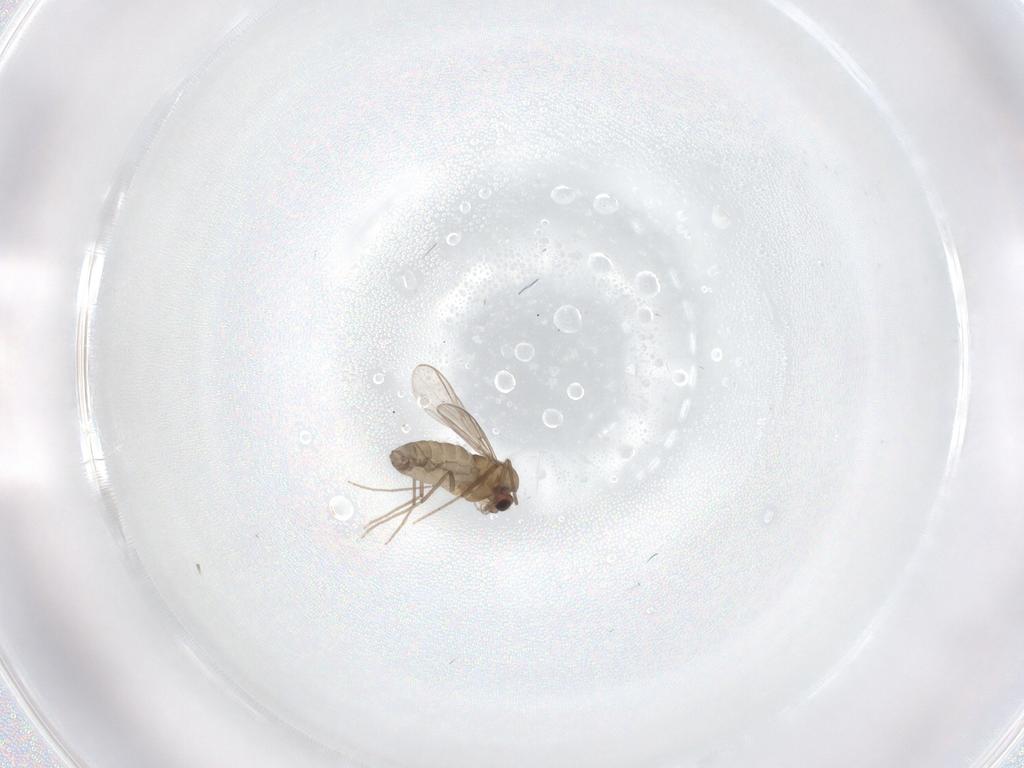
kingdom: Animalia
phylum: Arthropoda
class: Insecta
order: Diptera
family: Chironomidae
